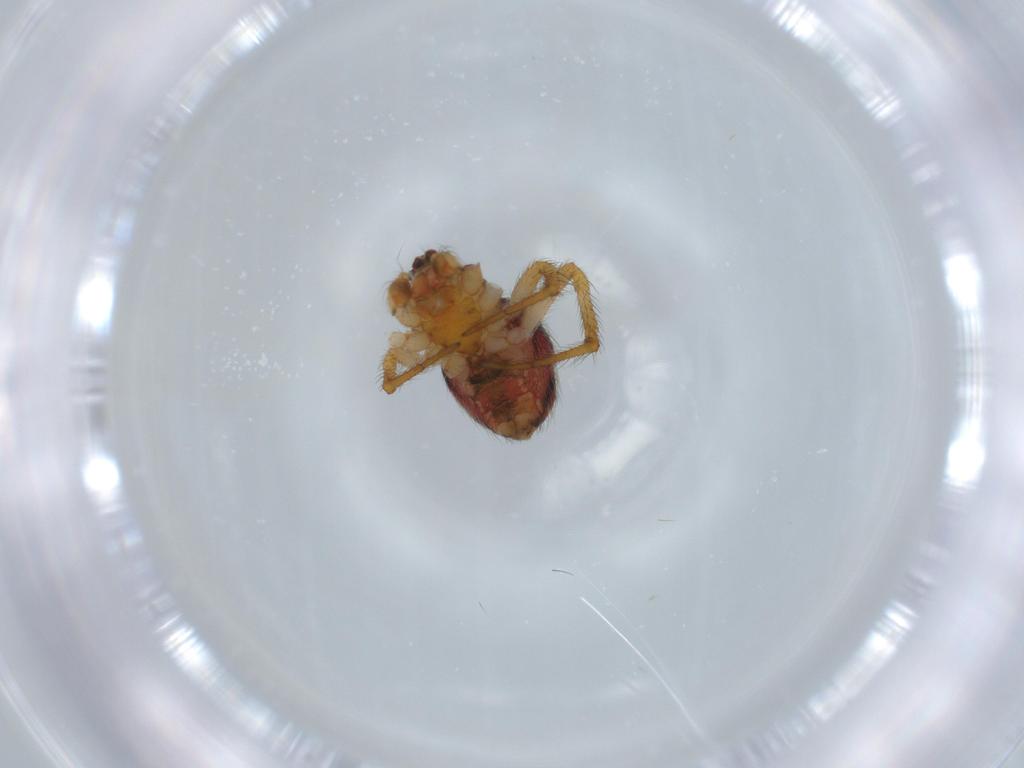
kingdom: Animalia
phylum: Arthropoda
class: Arachnida
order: Araneae
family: Theridiidae
